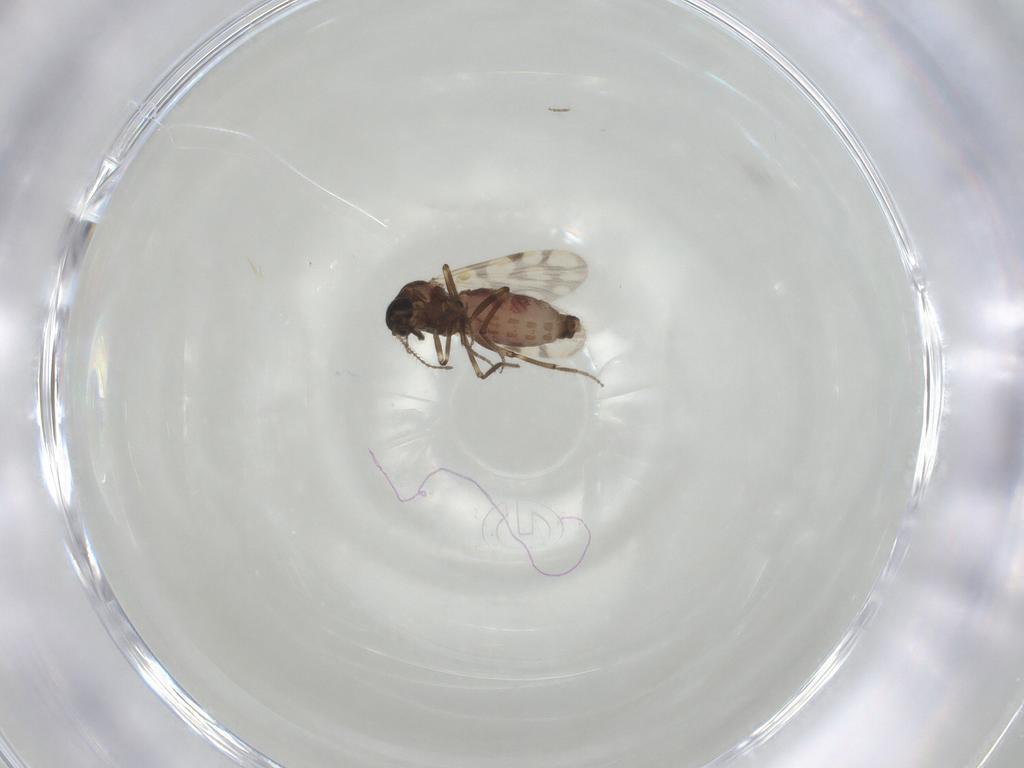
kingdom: Animalia
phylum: Arthropoda
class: Insecta
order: Diptera
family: Ceratopogonidae
